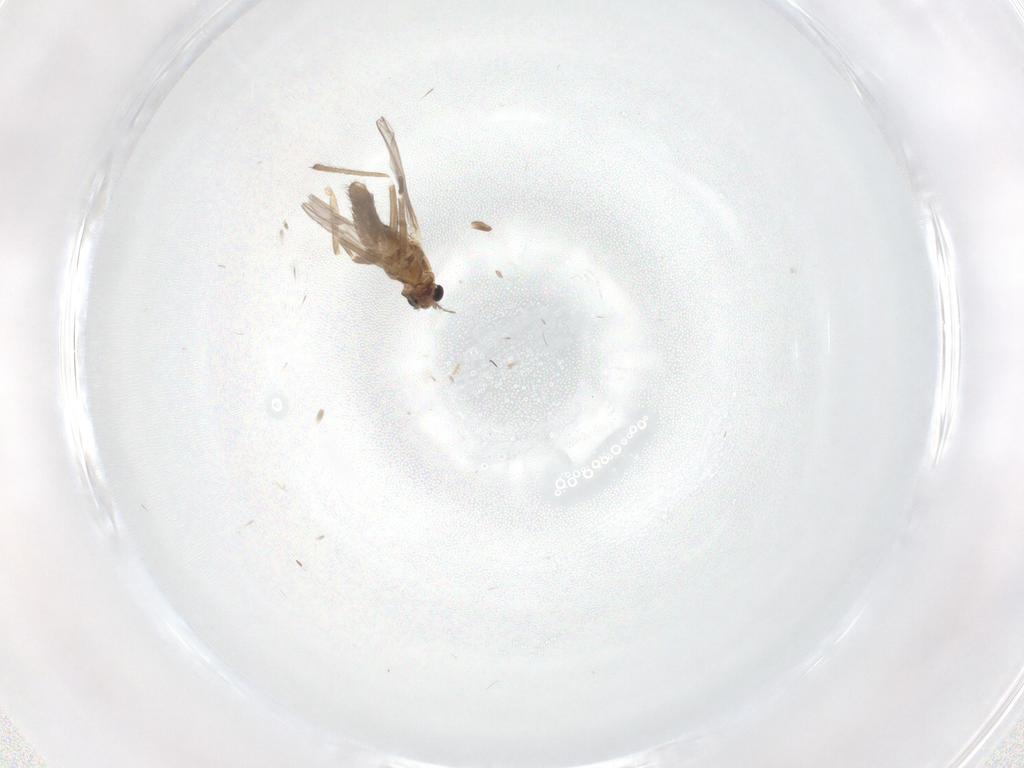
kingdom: Animalia
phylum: Arthropoda
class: Insecta
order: Diptera
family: Chironomidae
